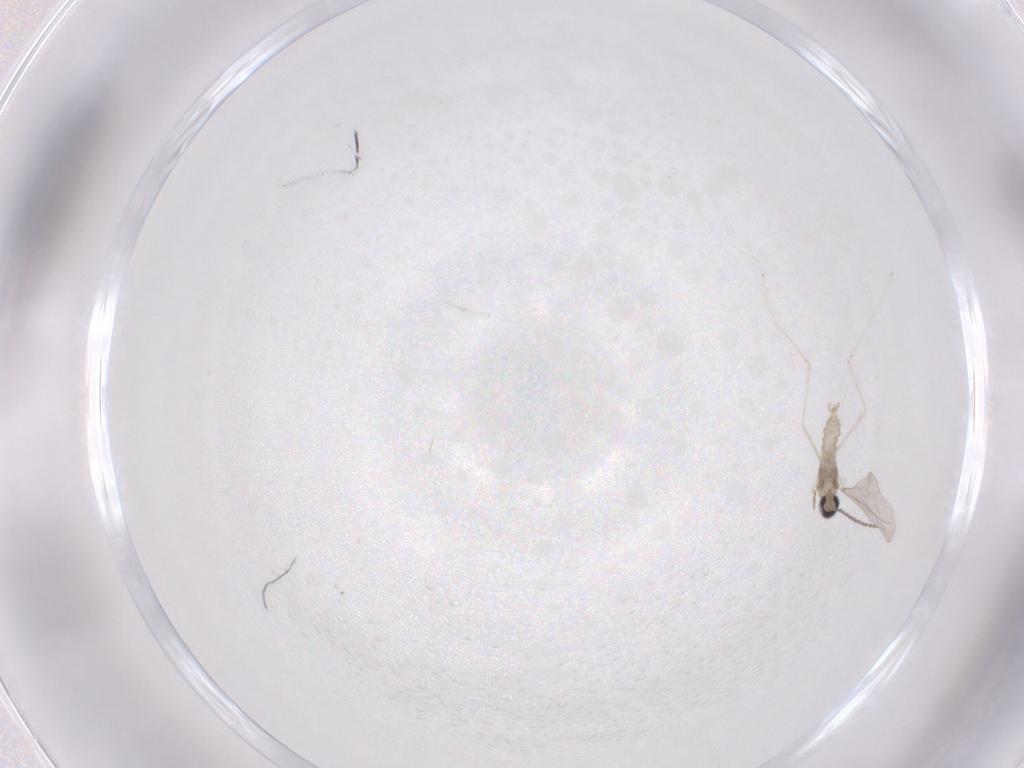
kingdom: Animalia
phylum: Arthropoda
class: Insecta
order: Diptera
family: Cecidomyiidae
